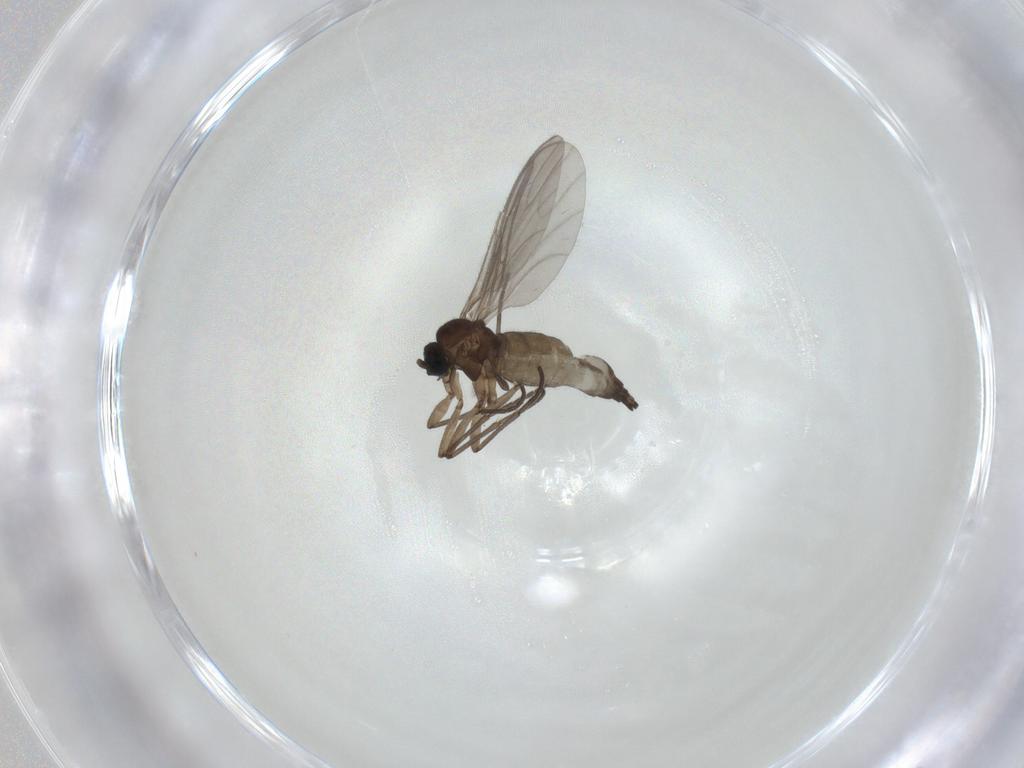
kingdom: Animalia
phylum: Arthropoda
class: Insecta
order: Diptera
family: Sciaridae
